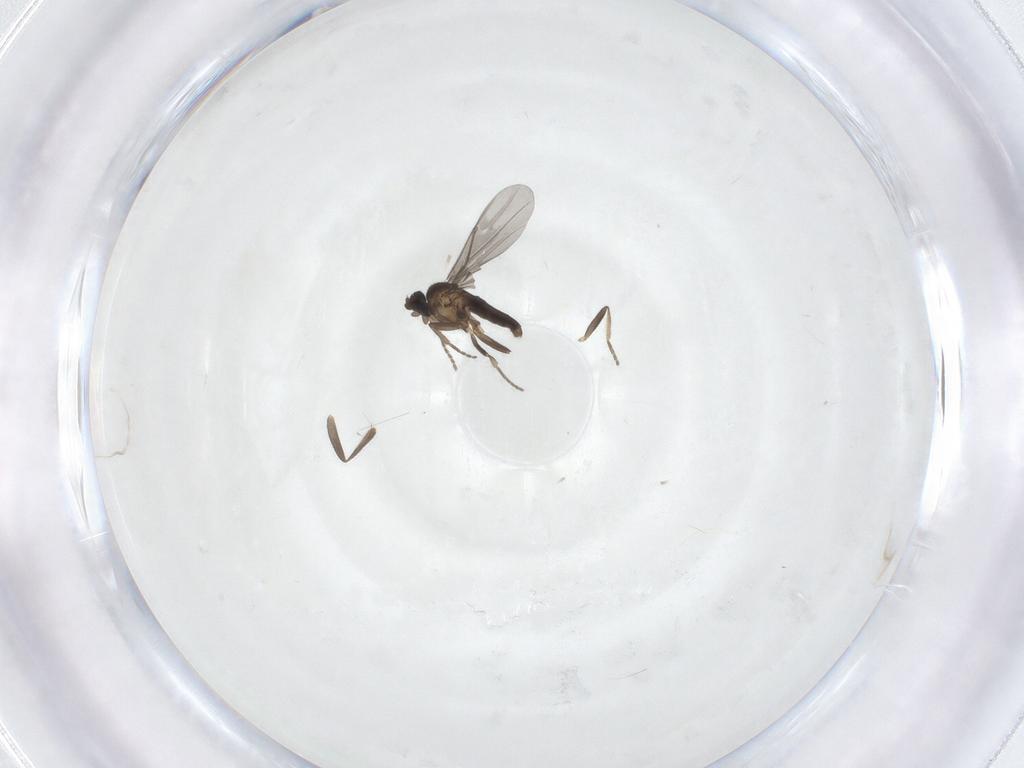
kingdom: Animalia
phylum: Arthropoda
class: Insecta
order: Diptera
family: Phoridae
